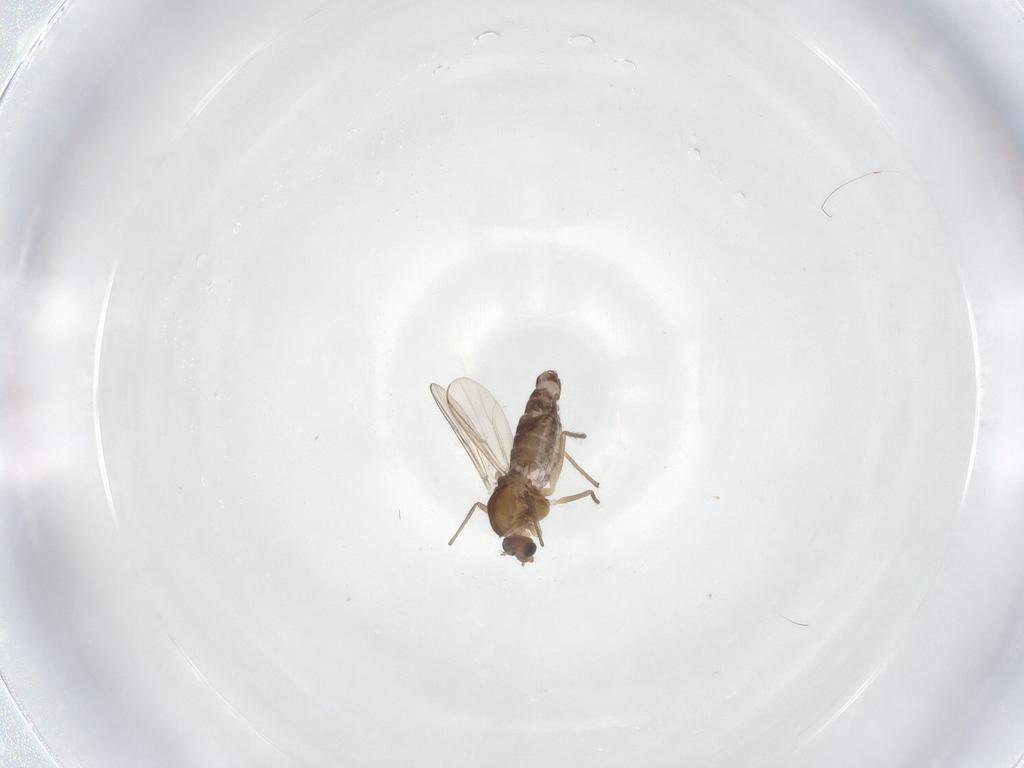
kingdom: Animalia
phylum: Arthropoda
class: Insecta
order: Diptera
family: Chironomidae
